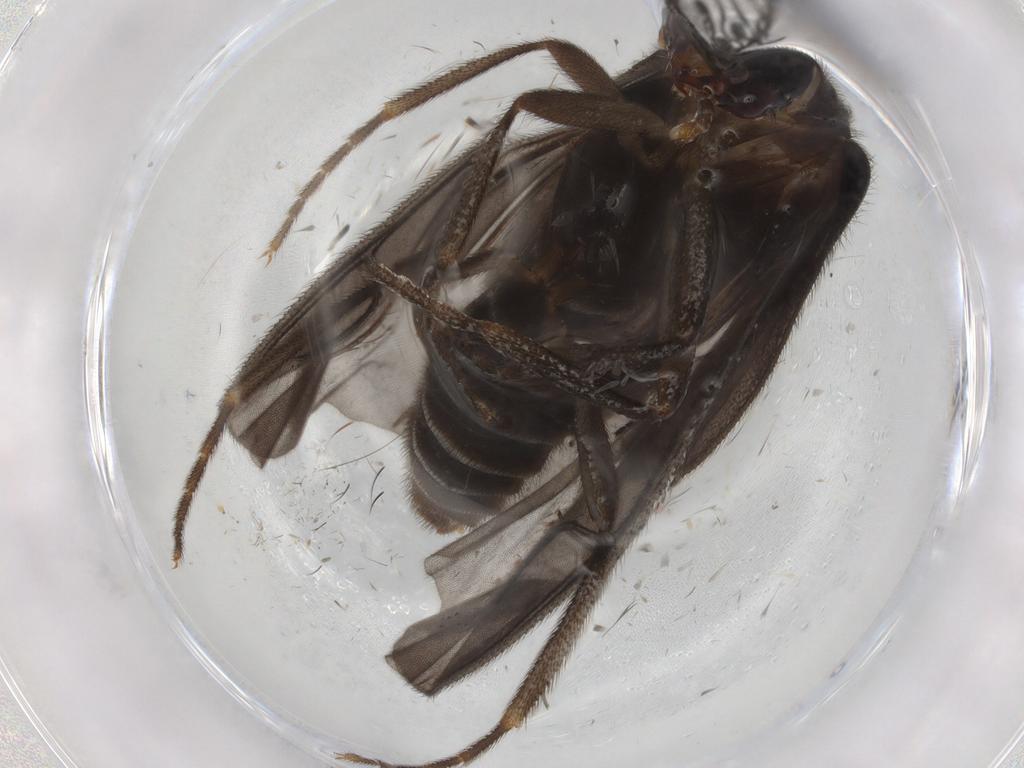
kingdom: Animalia
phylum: Arthropoda
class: Insecta
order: Coleoptera
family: Phengodidae
